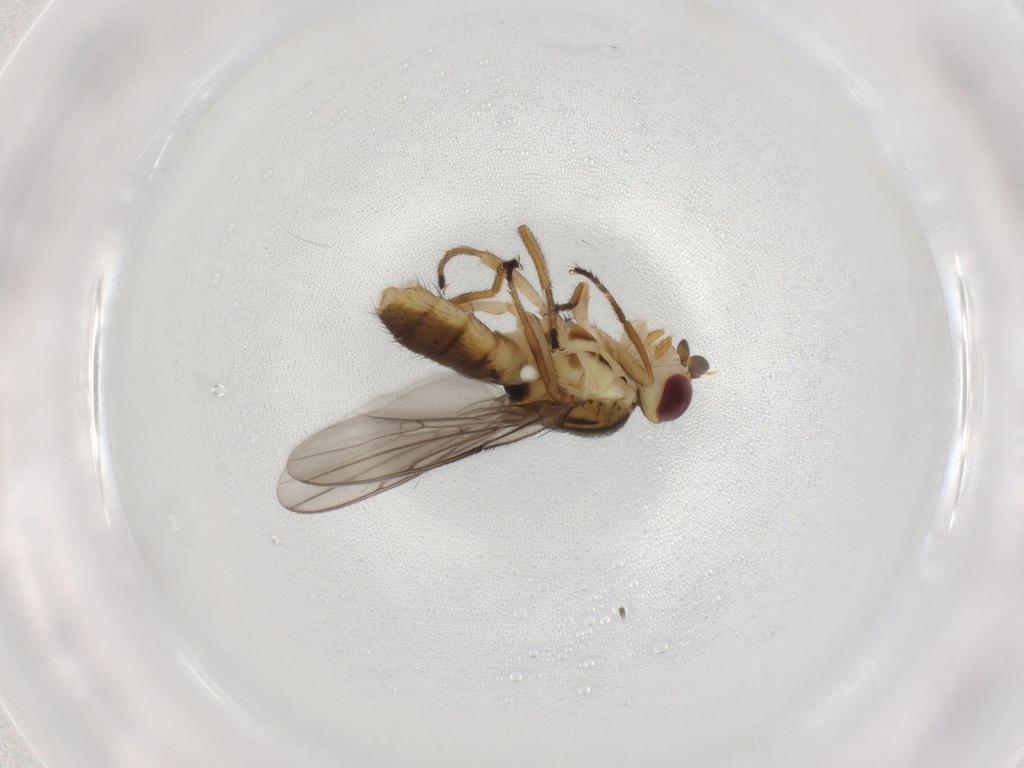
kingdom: Animalia
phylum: Arthropoda
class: Insecta
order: Diptera
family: Chloropidae
